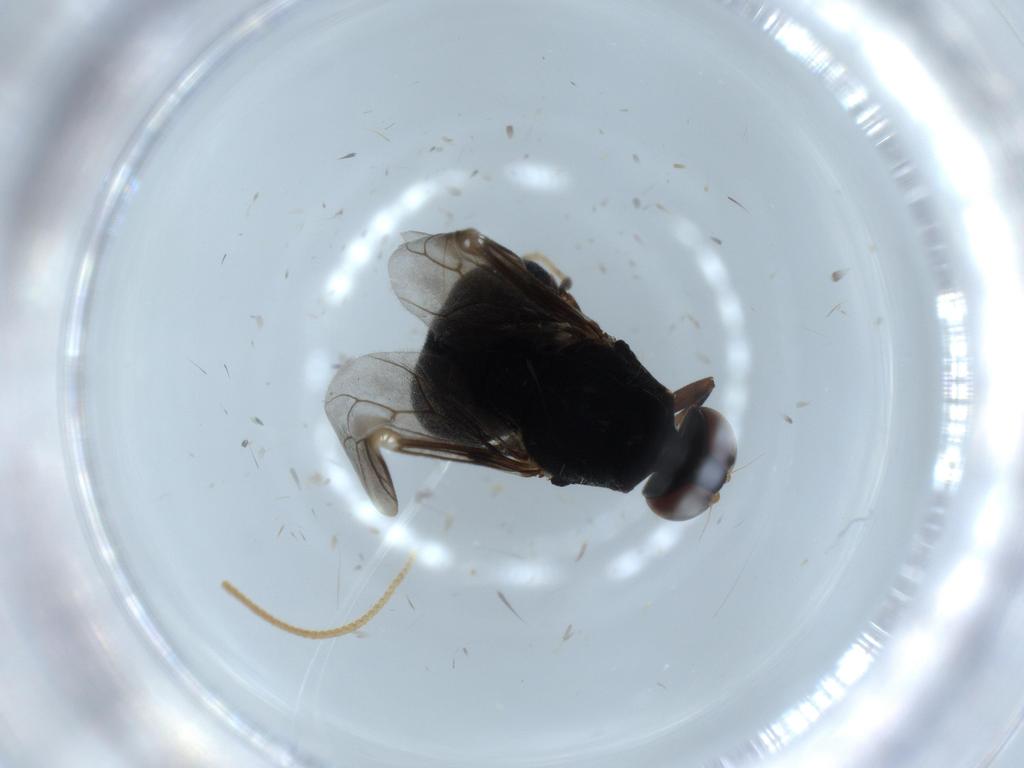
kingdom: Animalia
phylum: Arthropoda
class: Insecta
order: Diptera
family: Stratiomyidae
